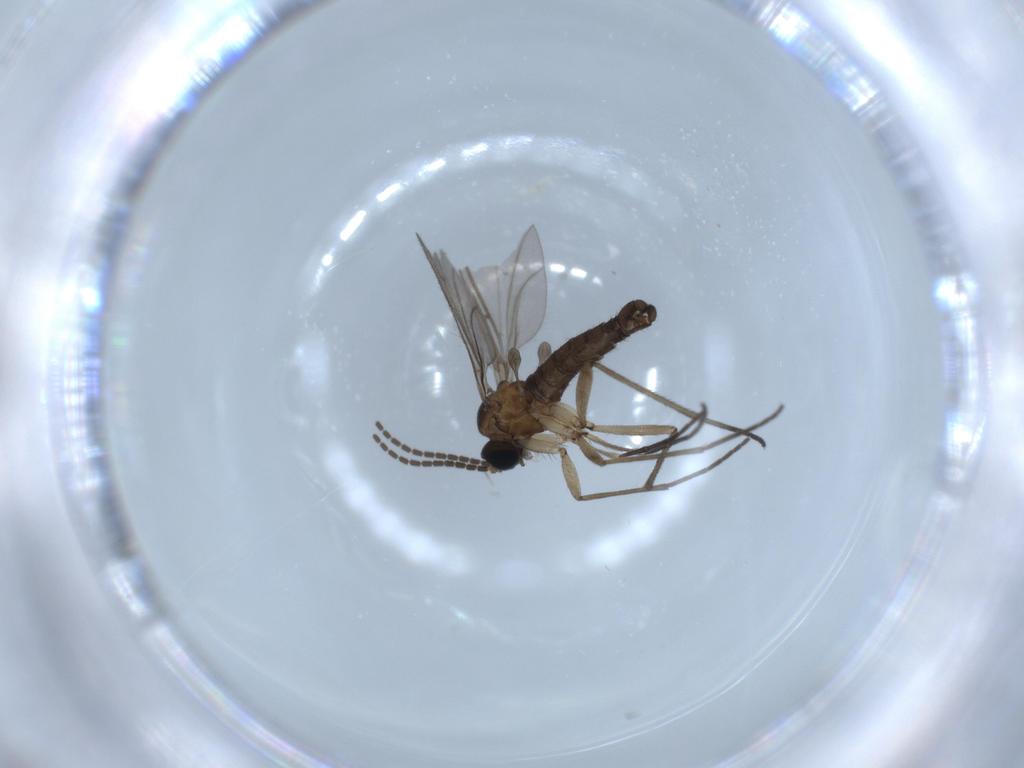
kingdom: Animalia
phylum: Arthropoda
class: Insecta
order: Diptera
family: Sciaridae
